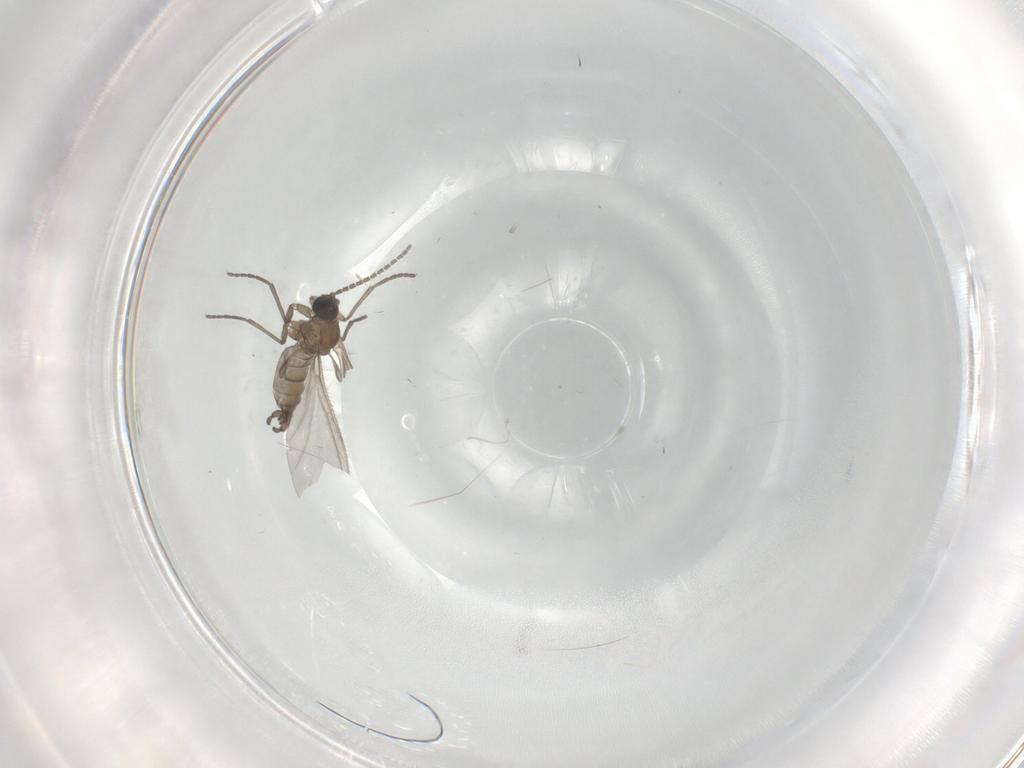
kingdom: Animalia
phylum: Arthropoda
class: Insecta
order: Diptera
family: Sciaridae
